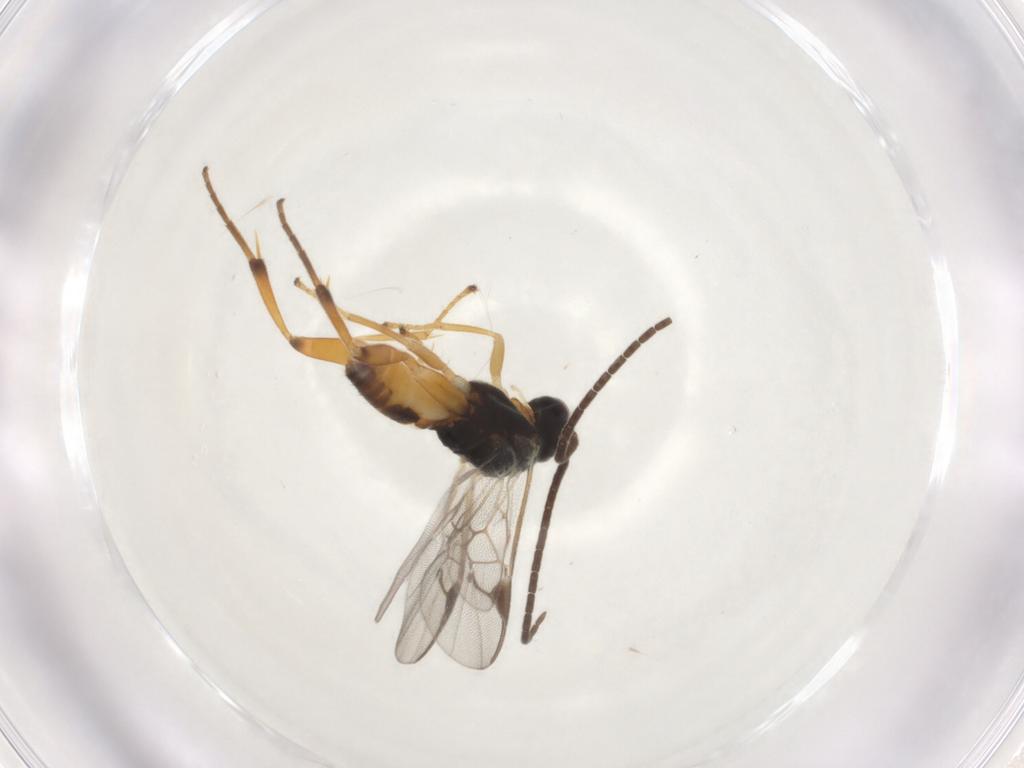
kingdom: Animalia
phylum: Arthropoda
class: Insecta
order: Hymenoptera
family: Braconidae
